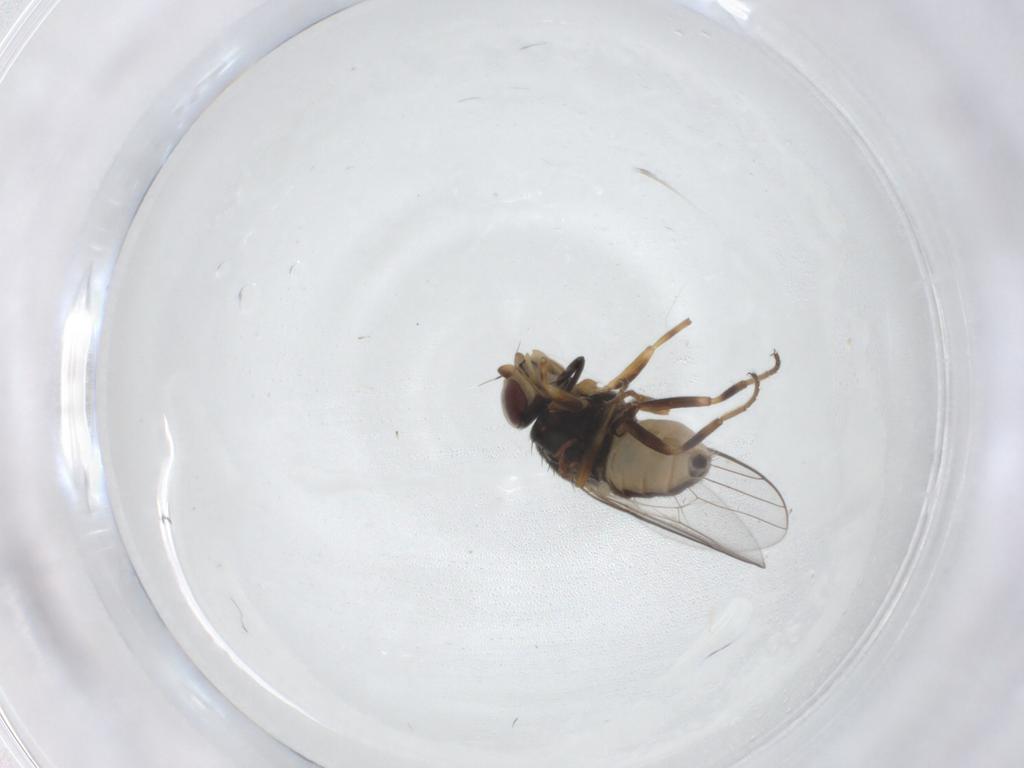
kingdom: Animalia
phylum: Arthropoda
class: Insecta
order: Diptera
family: Chloropidae
